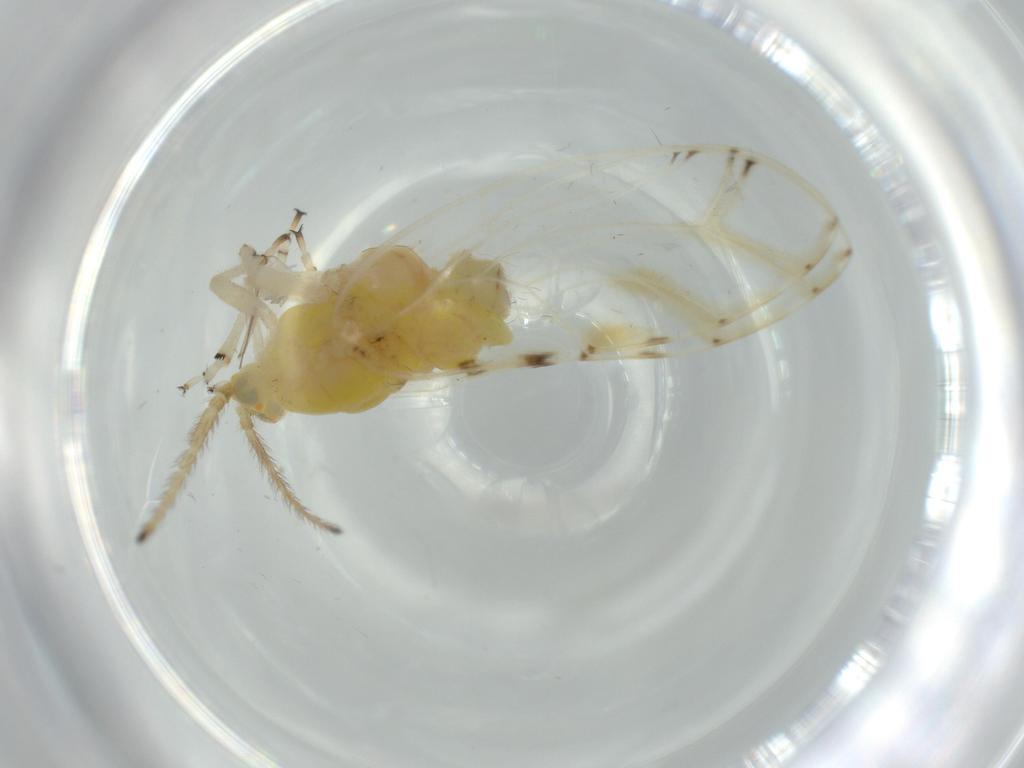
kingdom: Animalia
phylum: Arthropoda
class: Insecta
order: Diptera
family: Chironomidae
